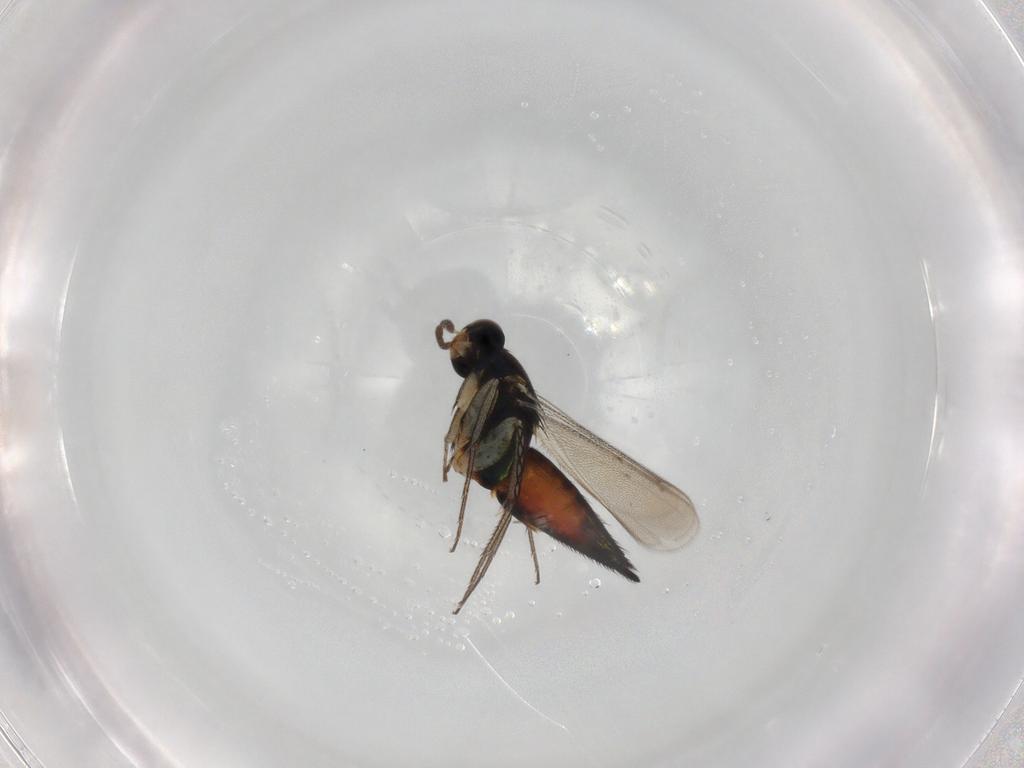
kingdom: Animalia
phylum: Arthropoda
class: Insecta
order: Hymenoptera
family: Eulophidae
